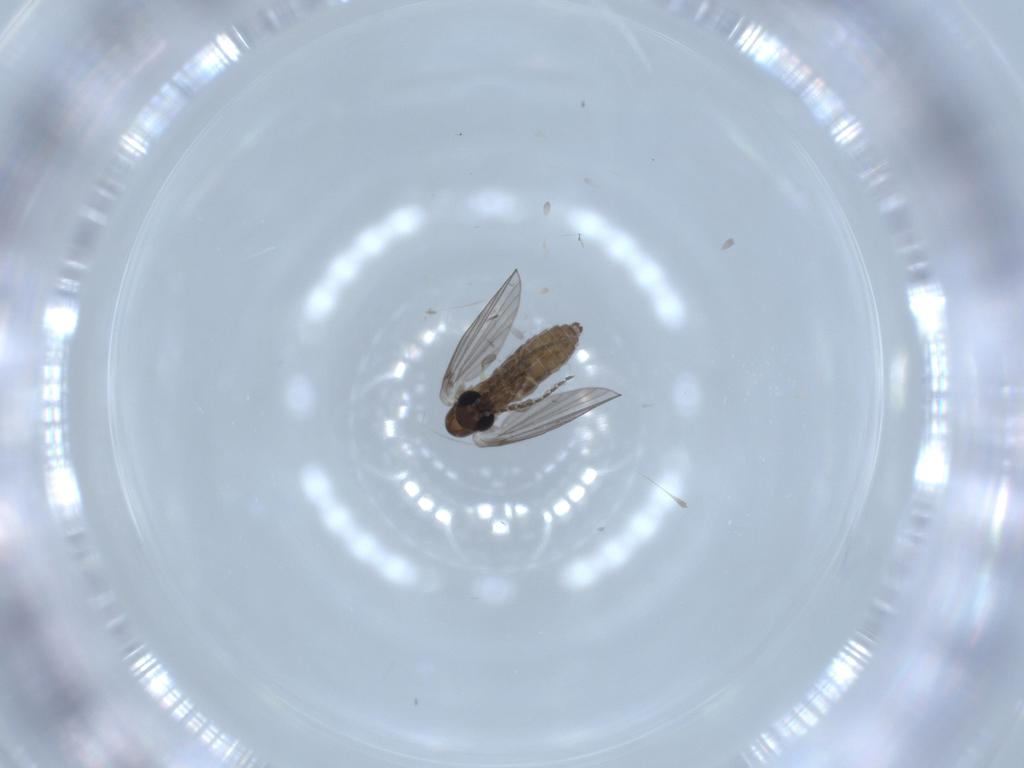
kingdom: Animalia
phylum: Arthropoda
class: Insecta
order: Diptera
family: Psychodidae
